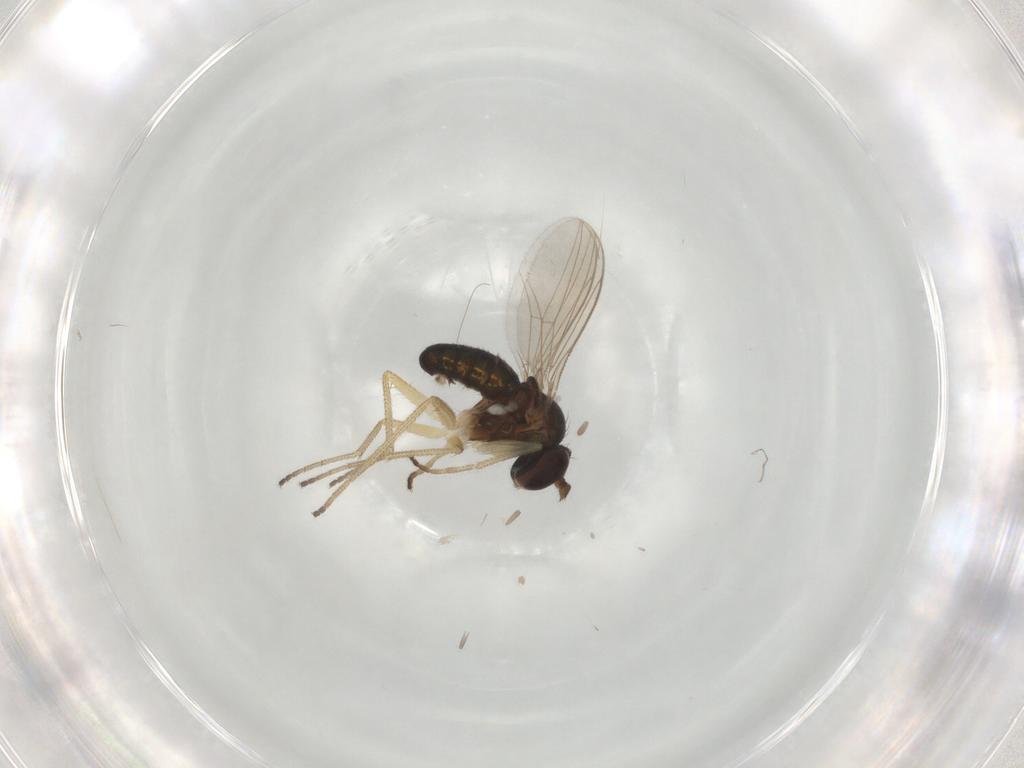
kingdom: Animalia
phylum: Arthropoda
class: Insecta
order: Diptera
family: Dolichopodidae
